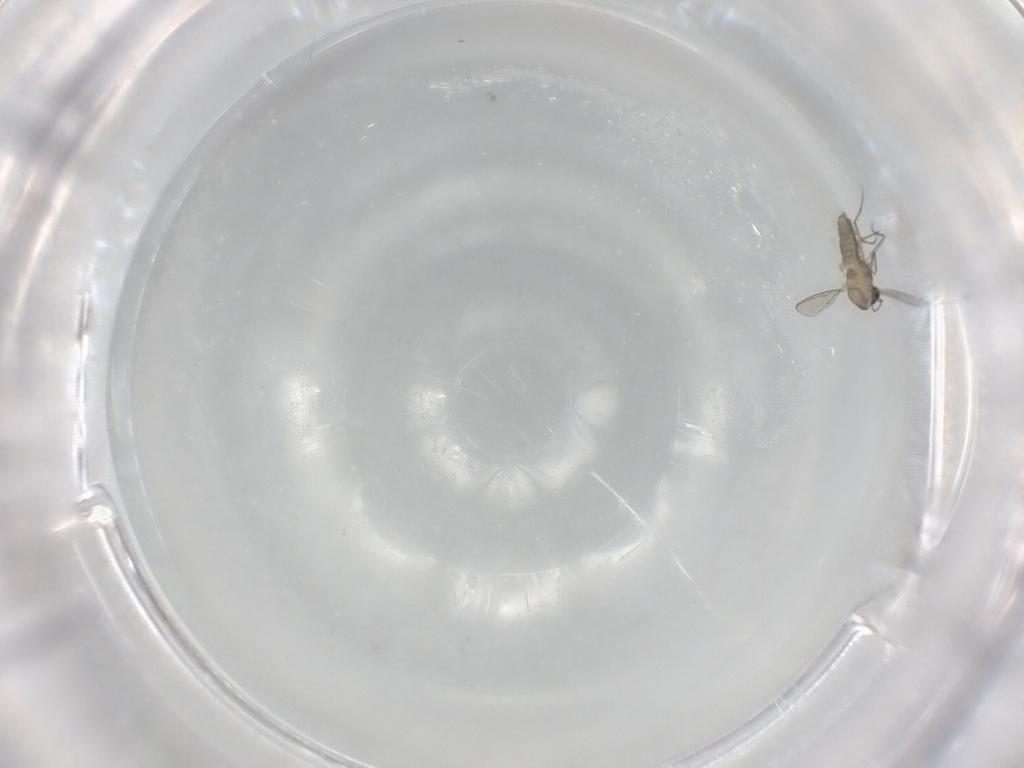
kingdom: Animalia
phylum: Arthropoda
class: Insecta
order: Diptera
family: Chironomidae
